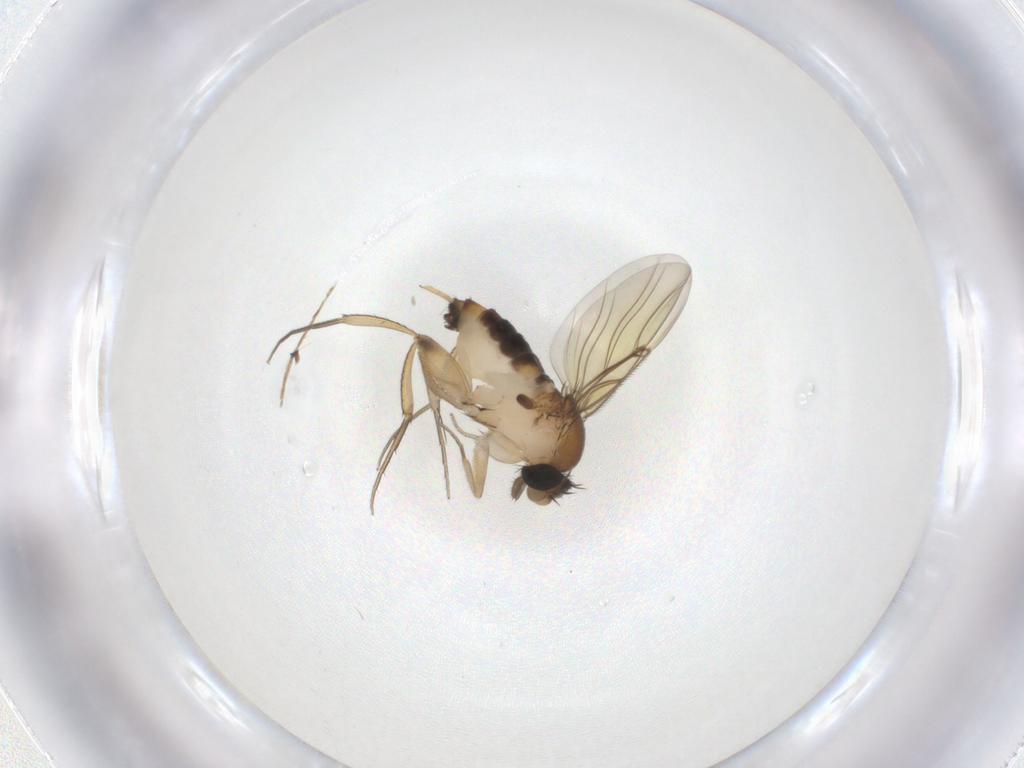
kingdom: Animalia
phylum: Arthropoda
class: Insecta
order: Diptera
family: Phoridae
